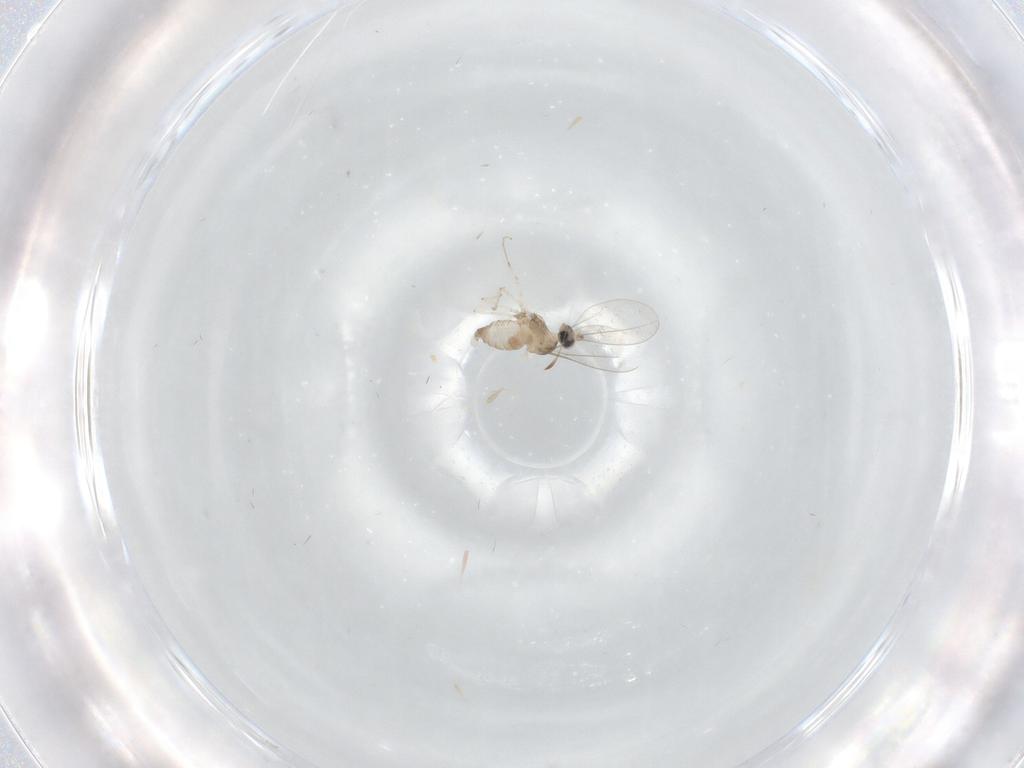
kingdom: Animalia
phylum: Arthropoda
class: Insecta
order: Diptera
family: Cecidomyiidae
